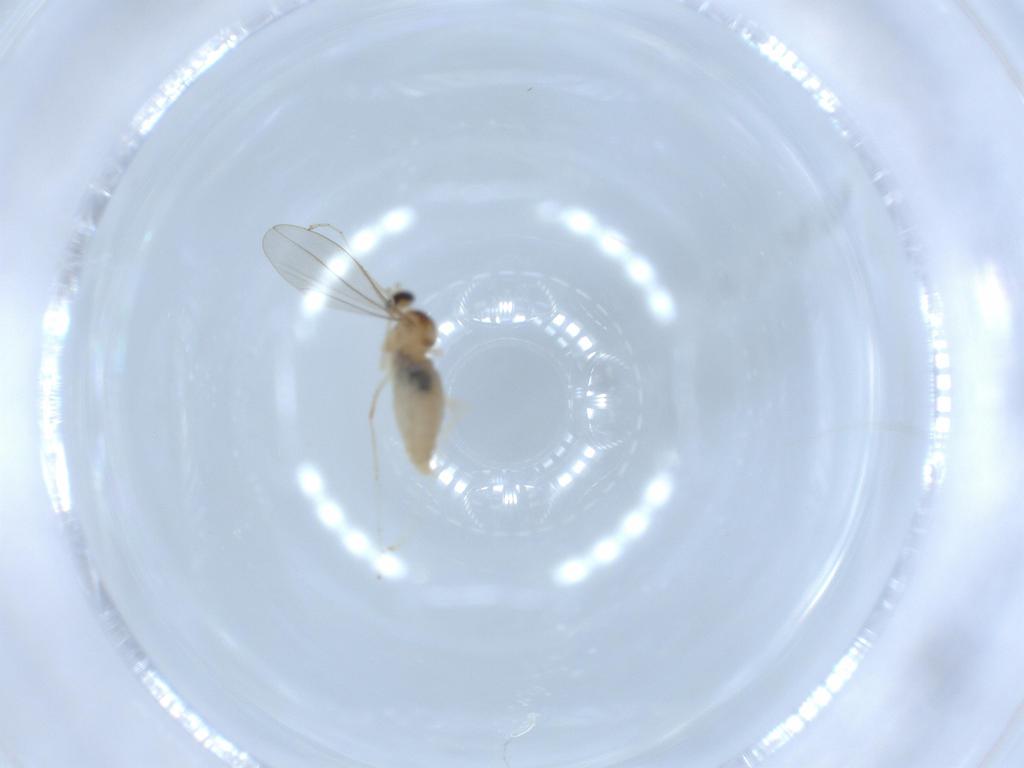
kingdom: Animalia
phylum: Arthropoda
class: Insecta
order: Diptera
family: Cecidomyiidae
